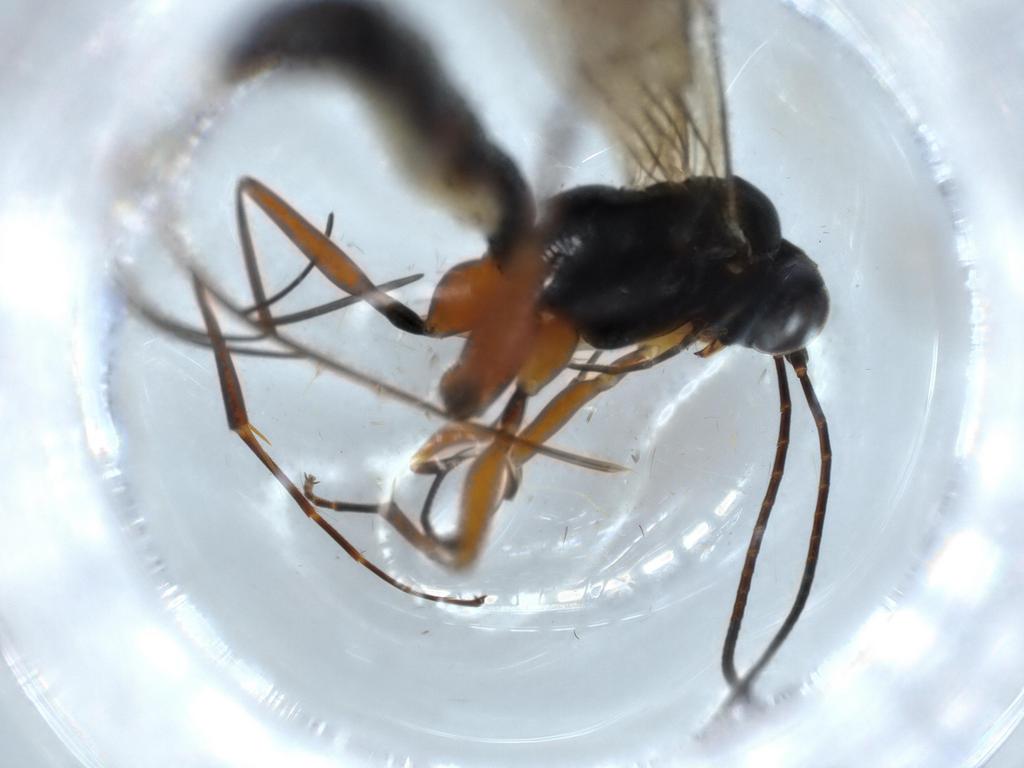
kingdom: Animalia
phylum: Arthropoda
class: Insecta
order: Hymenoptera
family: Ichneumonidae
